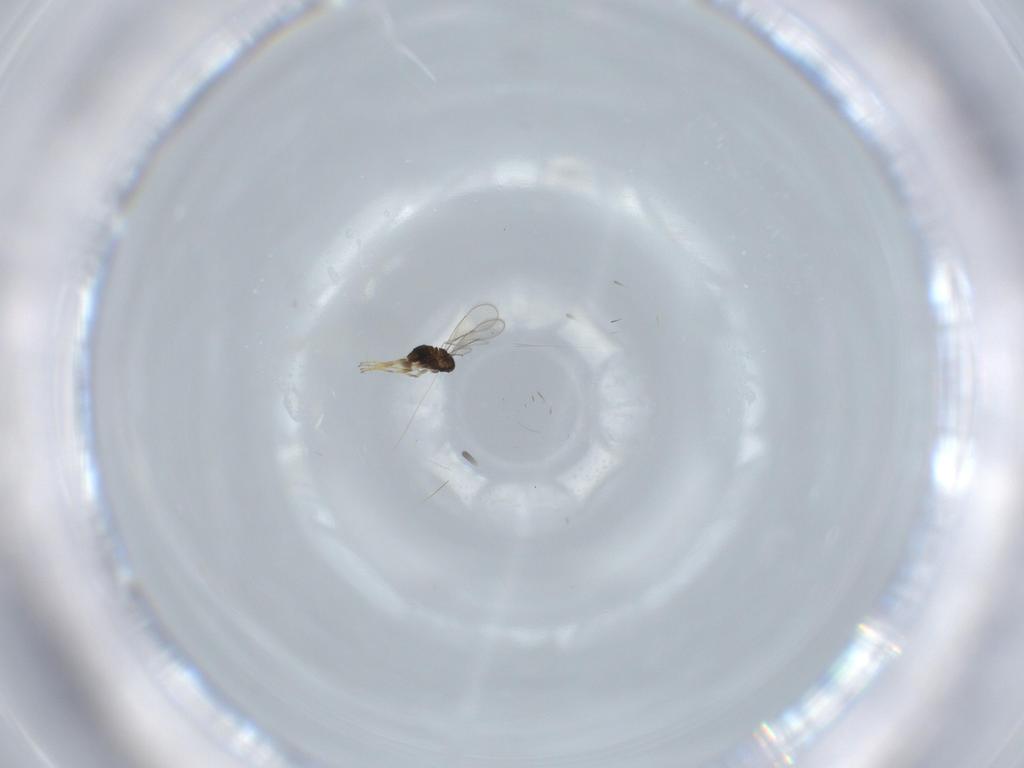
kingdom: Animalia
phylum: Arthropoda
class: Insecta
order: Hymenoptera
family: Aphelinidae
